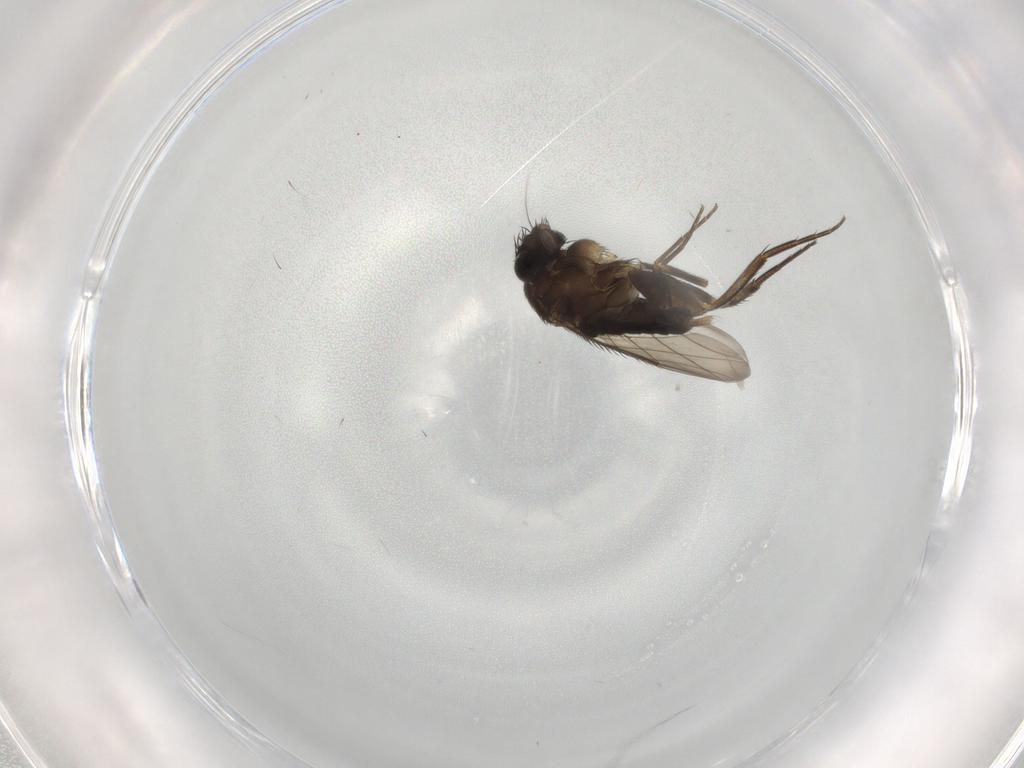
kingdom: Animalia
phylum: Arthropoda
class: Insecta
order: Diptera
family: Phoridae
